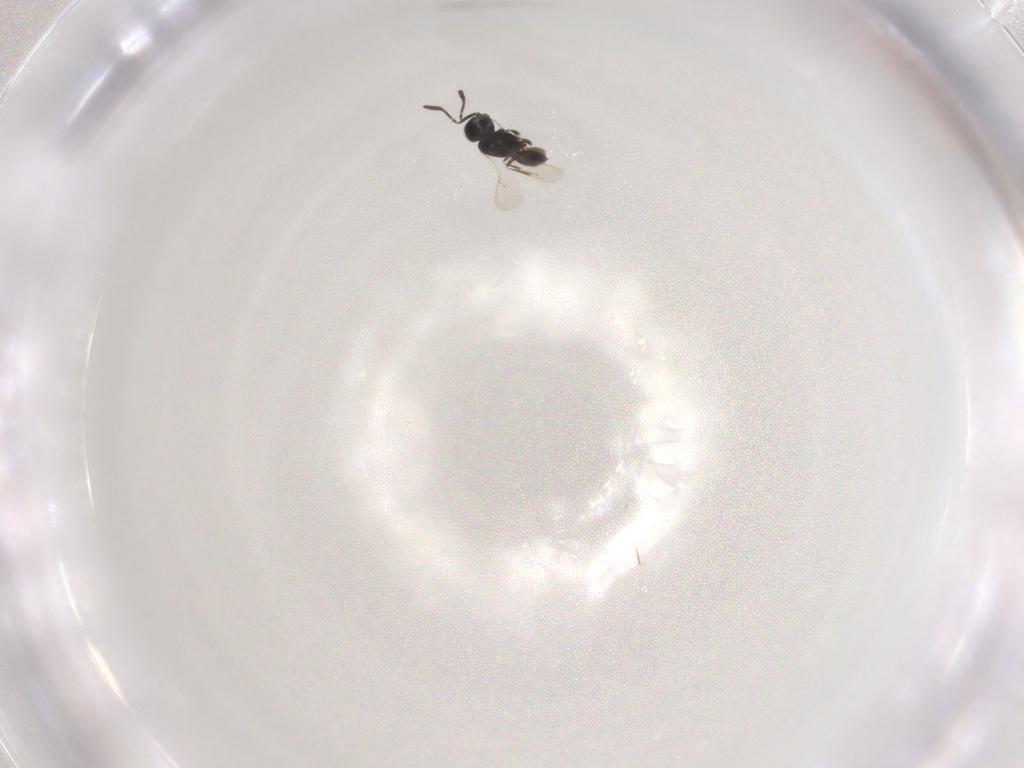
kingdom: Animalia
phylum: Arthropoda
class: Insecta
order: Hymenoptera
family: Scelionidae
